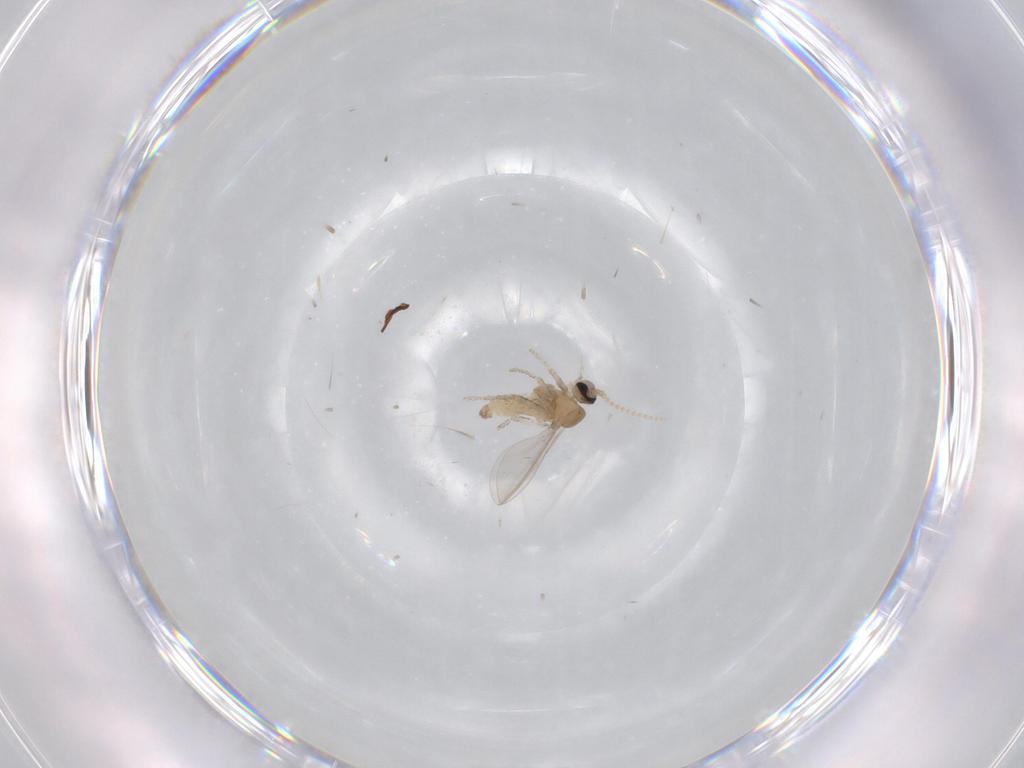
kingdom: Animalia
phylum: Arthropoda
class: Insecta
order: Diptera
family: Cecidomyiidae
